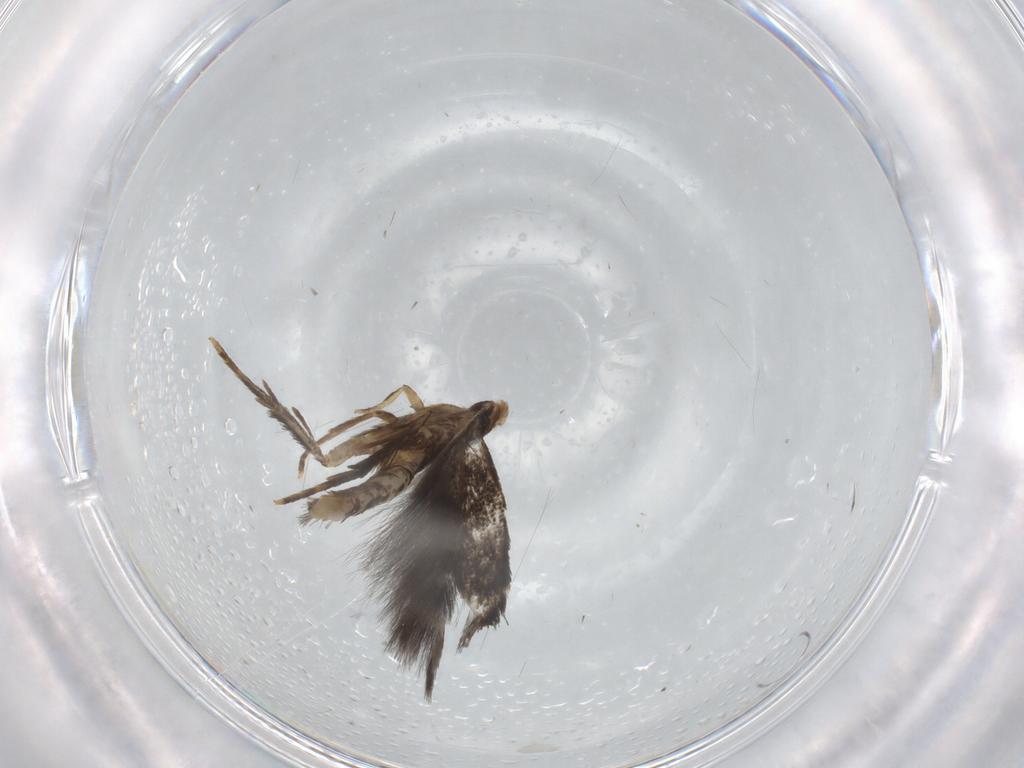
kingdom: Animalia
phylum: Arthropoda
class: Insecta
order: Lepidoptera
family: Gelechiidae
